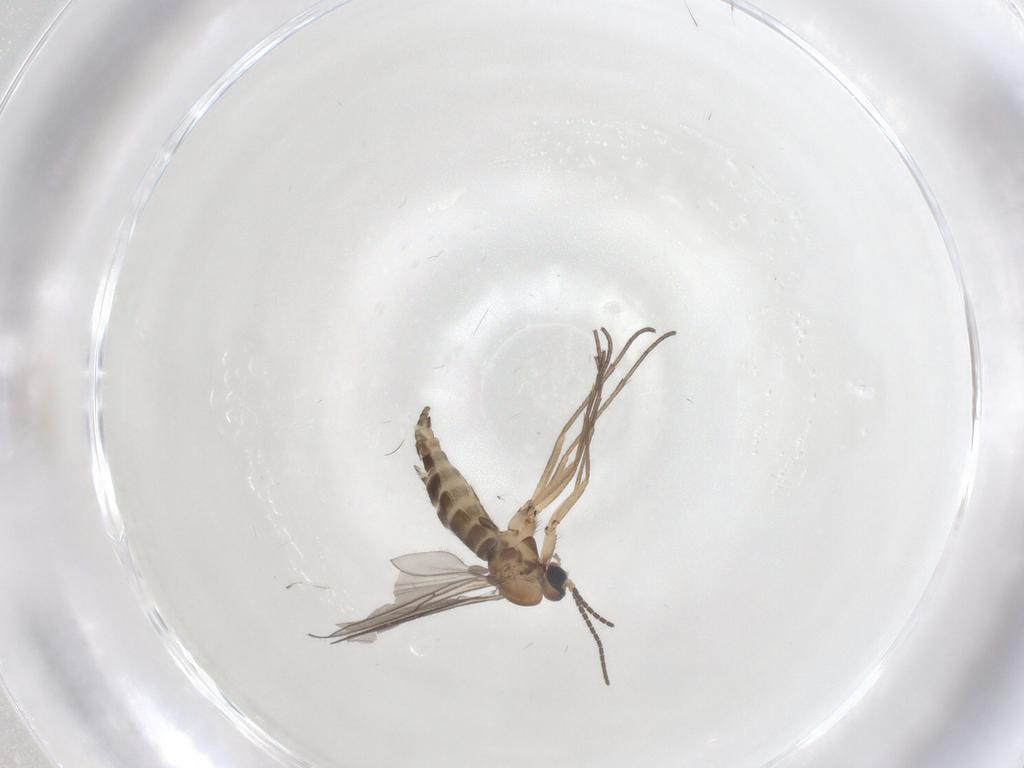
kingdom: Animalia
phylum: Arthropoda
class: Insecta
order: Diptera
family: Sciaridae
